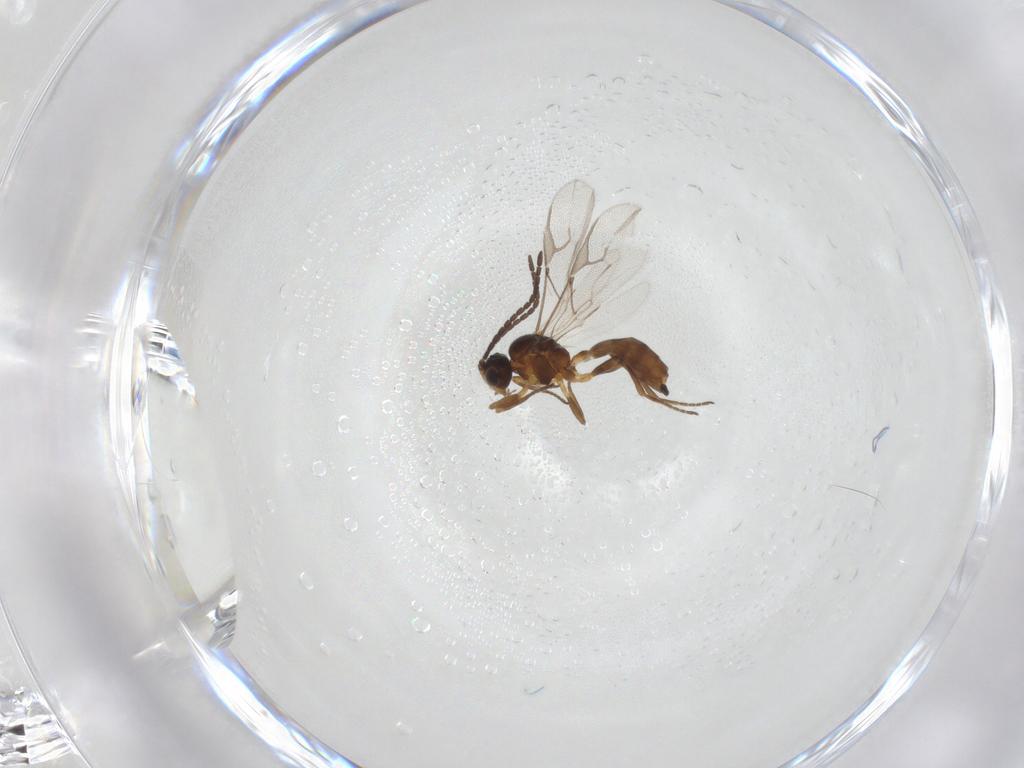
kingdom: Animalia
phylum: Arthropoda
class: Insecta
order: Hymenoptera
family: Braconidae
